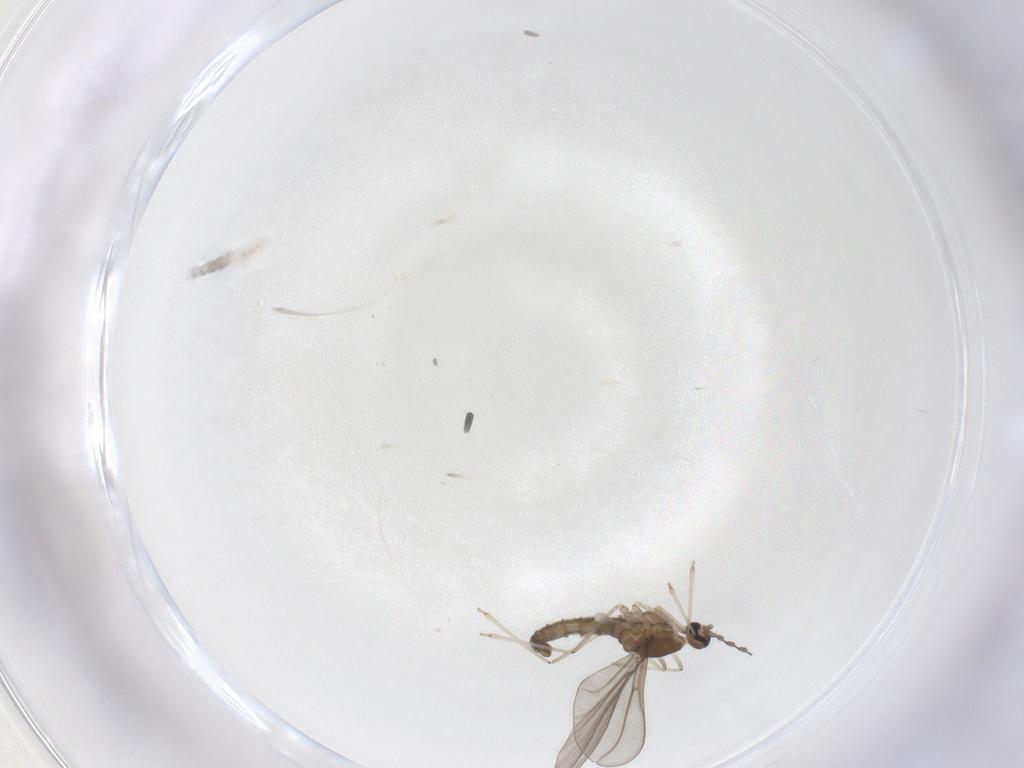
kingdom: Animalia
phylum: Arthropoda
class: Insecta
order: Diptera
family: Cecidomyiidae
